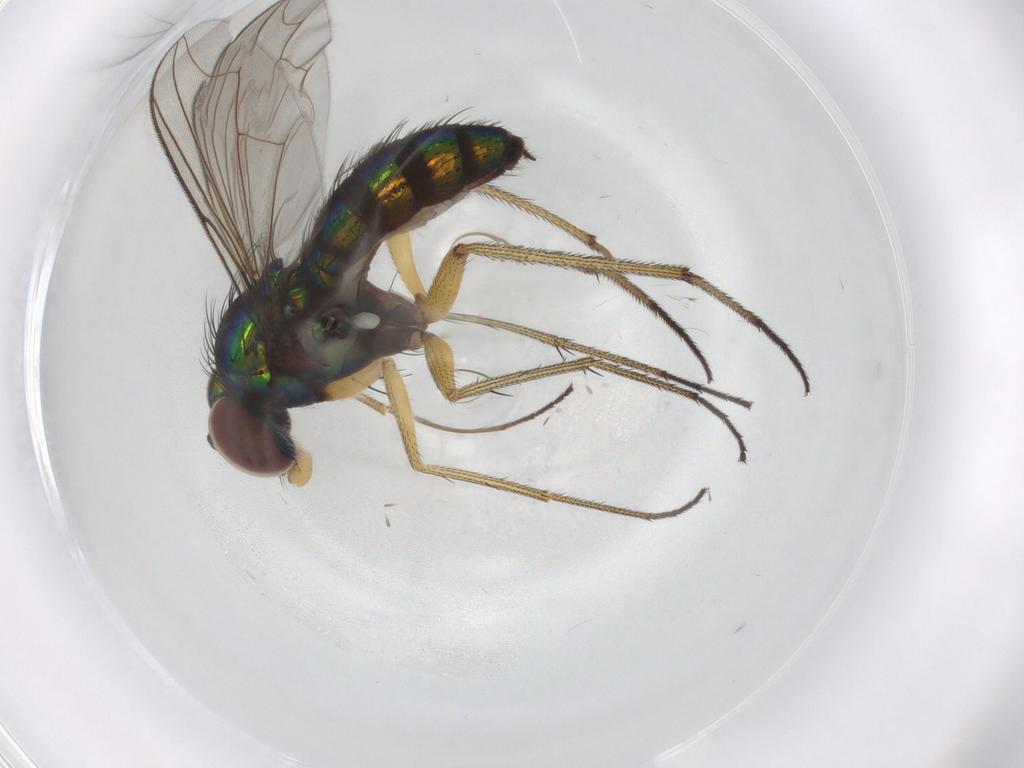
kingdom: Animalia
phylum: Arthropoda
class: Insecta
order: Diptera
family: Dolichopodidae
